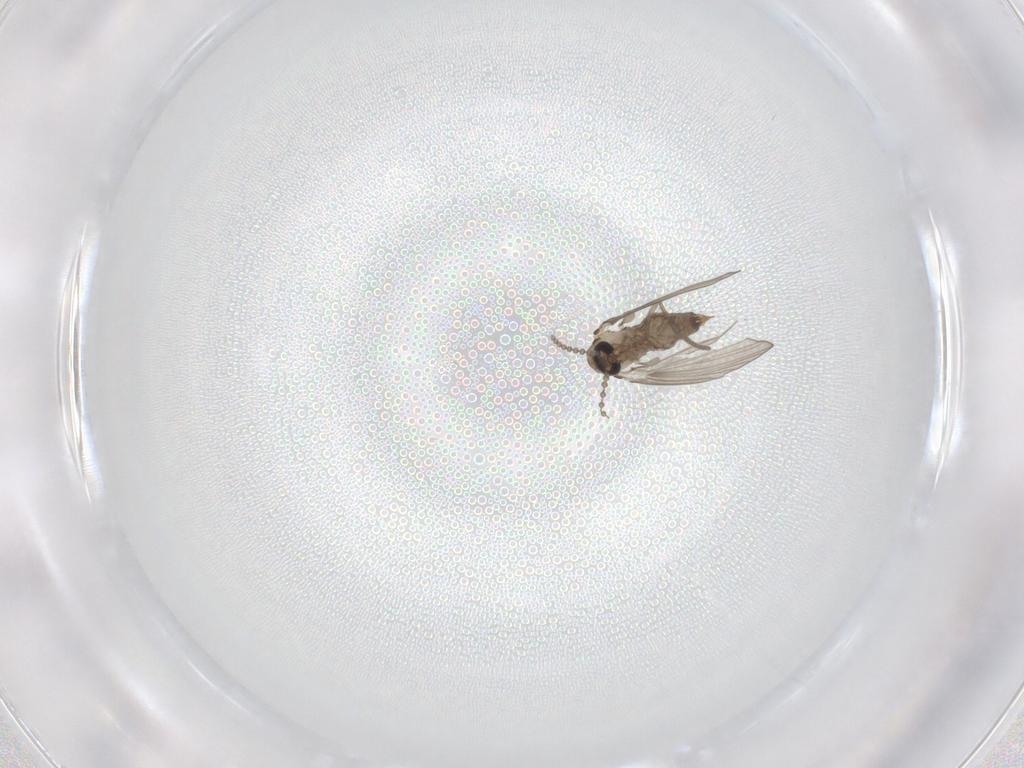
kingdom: Animalia
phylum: Arthropoda
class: Insecta
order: Diptera
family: Psychodidae
